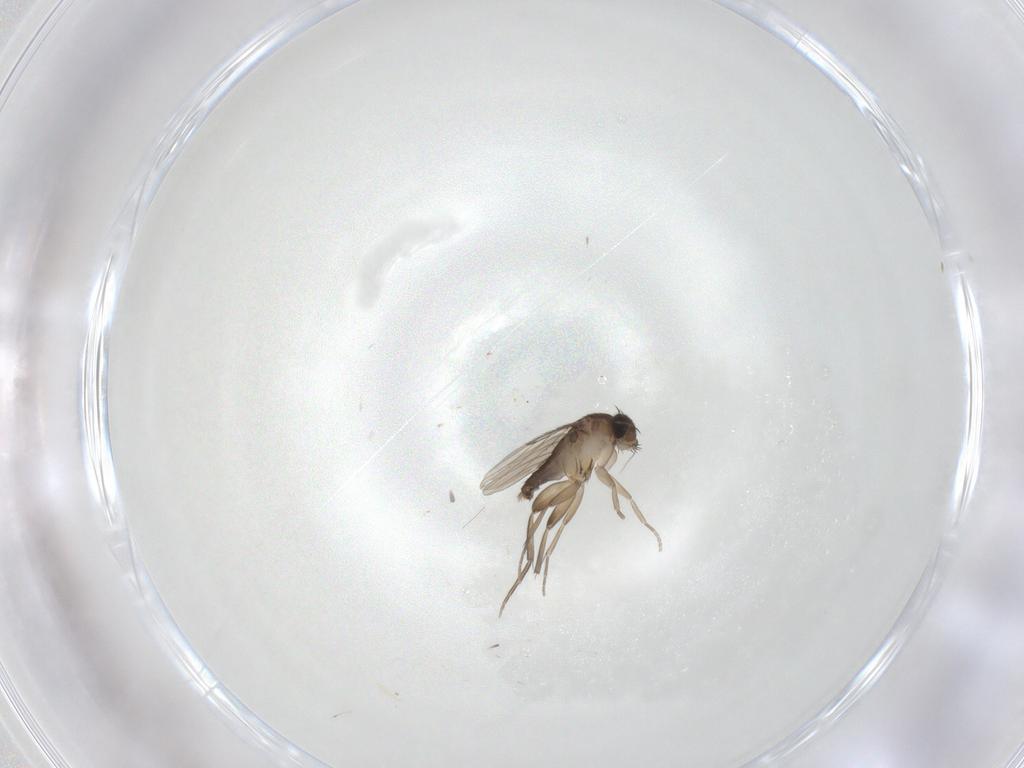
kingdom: Animalia
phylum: Arthropoda
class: Insecta
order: Diptera
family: Phoridae
